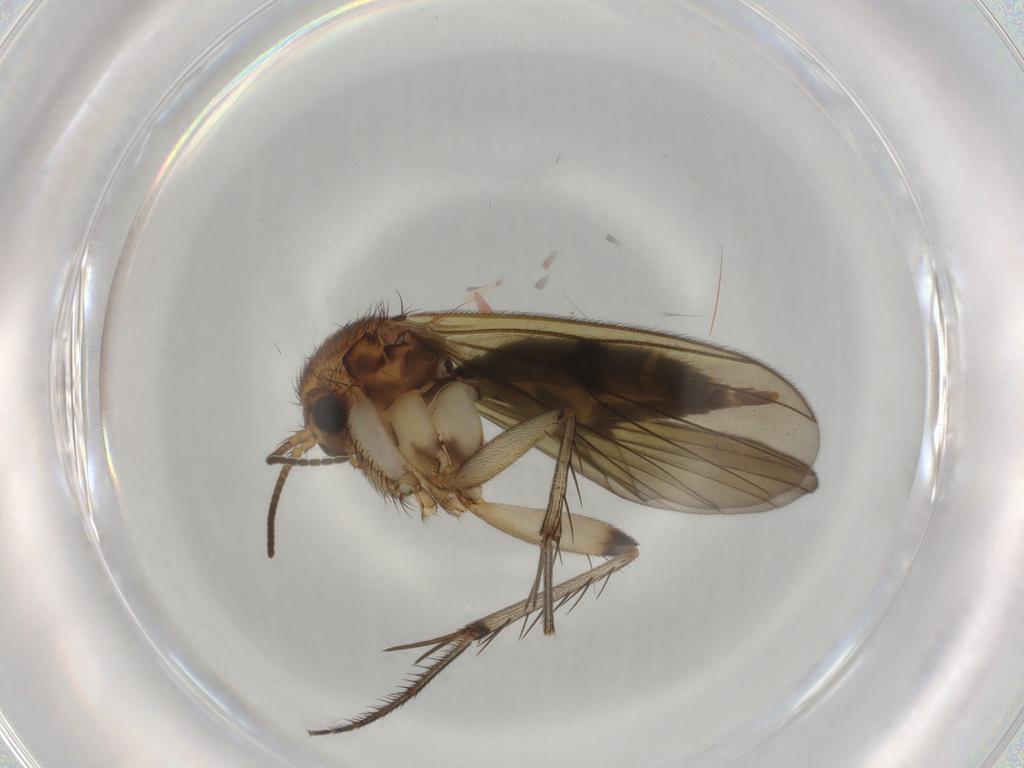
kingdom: Animalia
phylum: Arthropoda
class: Insecta
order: Diptera
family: Mycetophilidae
